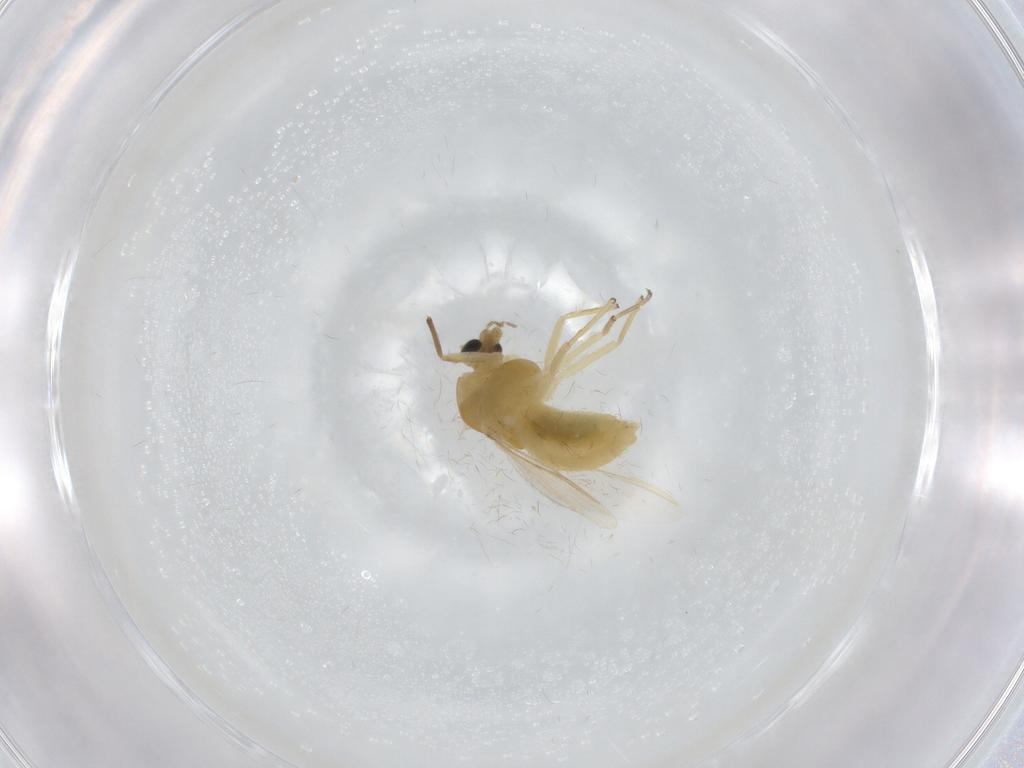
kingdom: Animalia
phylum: Arthropoda
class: Insecta
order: Diptera
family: Chironomidae
